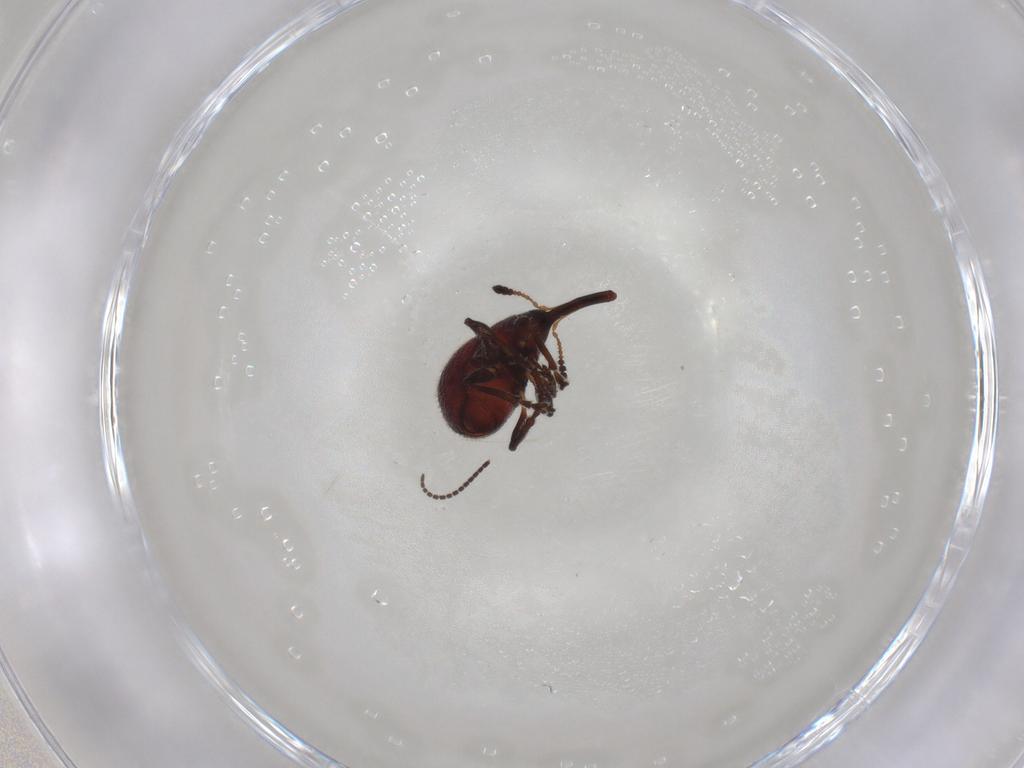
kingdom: Animalia
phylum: Arthropoda
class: Insecta
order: Coleoptera
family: Brentidae
